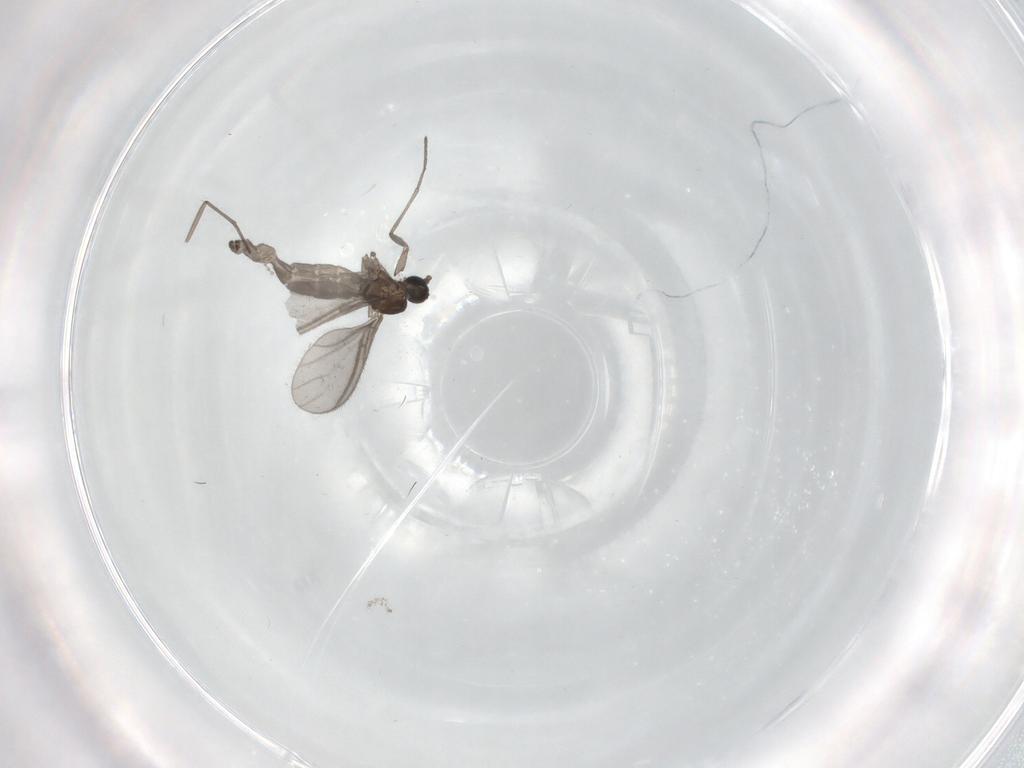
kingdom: Animalia
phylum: Arthropoda
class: Insecta
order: Diptera
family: Sciaridae
